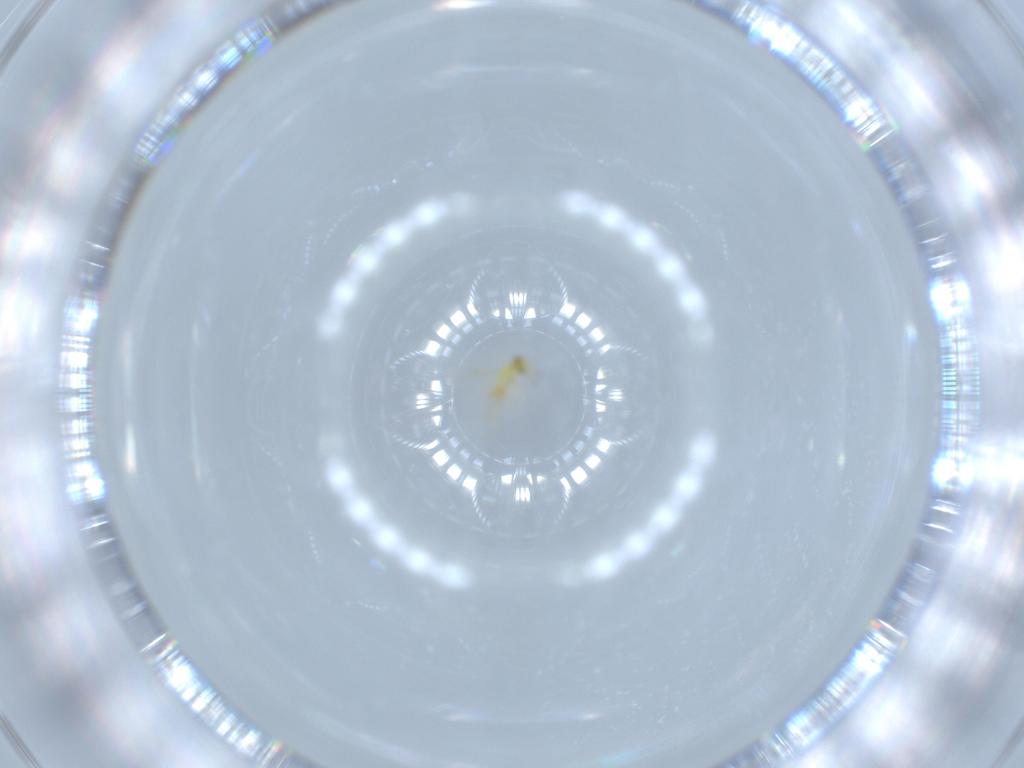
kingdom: Animalia
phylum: Arthropoda
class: Insecta
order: Hymenoptera
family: Aphelinidae
